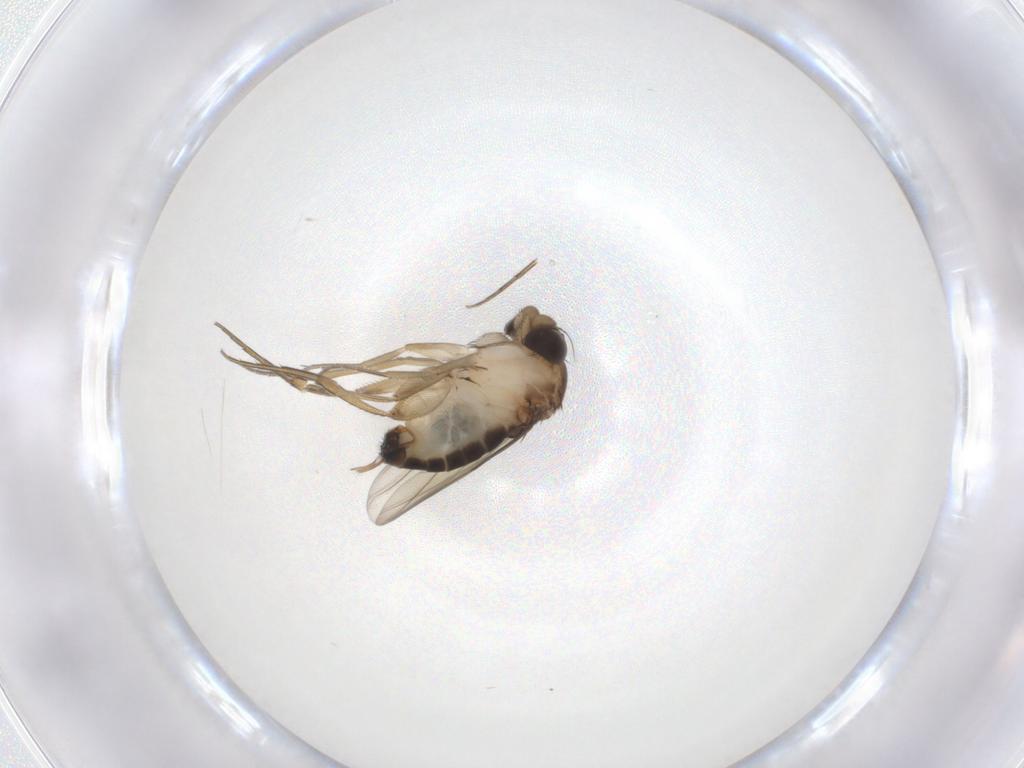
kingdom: Animalia
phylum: Arthropoda
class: Insecta
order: Diptera
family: Phoridae
